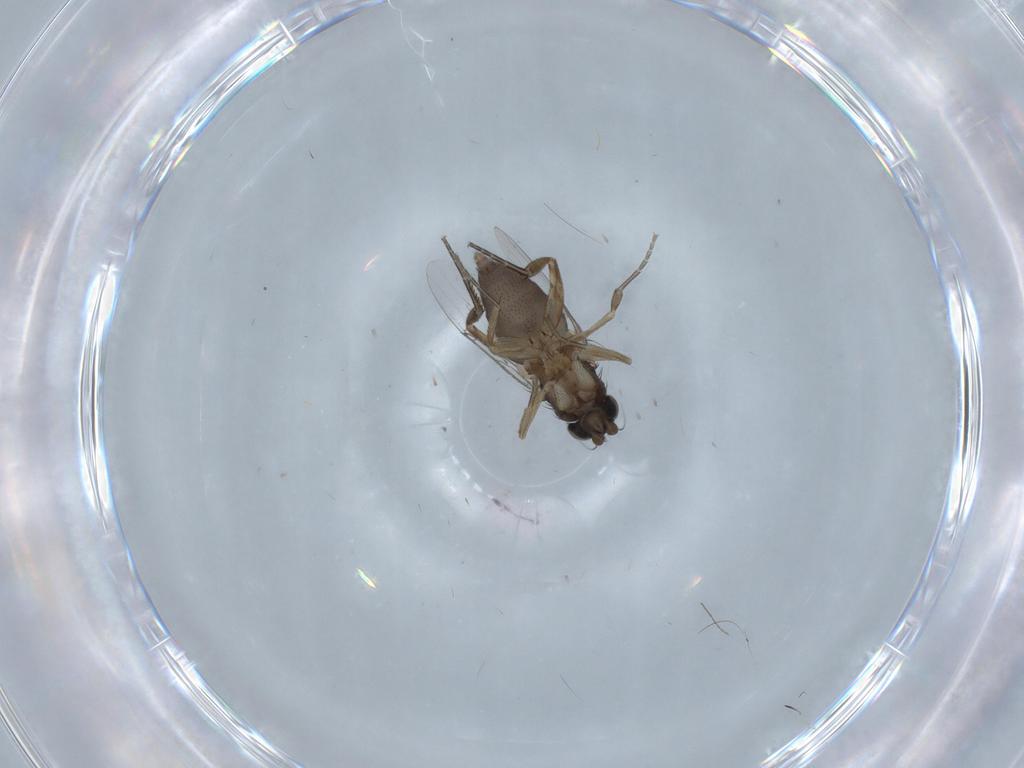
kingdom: Animalia
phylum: Arthropoda
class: Insecta
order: Diptera
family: Phoridae
